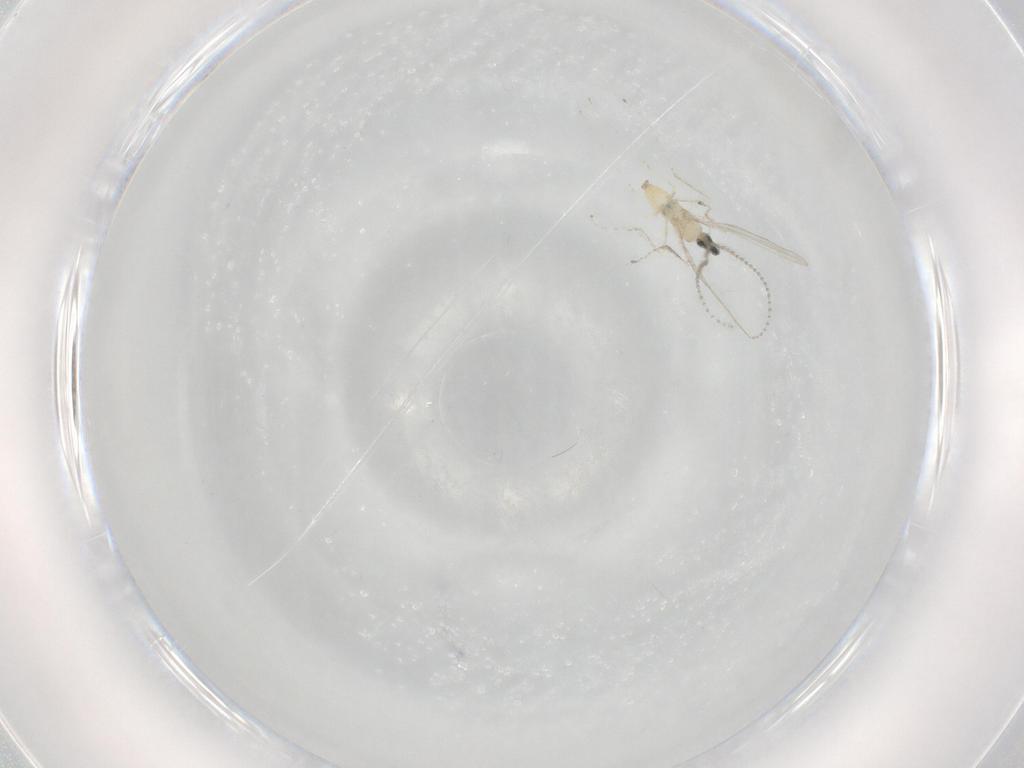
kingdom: Animalia
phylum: Arthropoda
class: Insecta
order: Diptera
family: Cecidomyiidae
